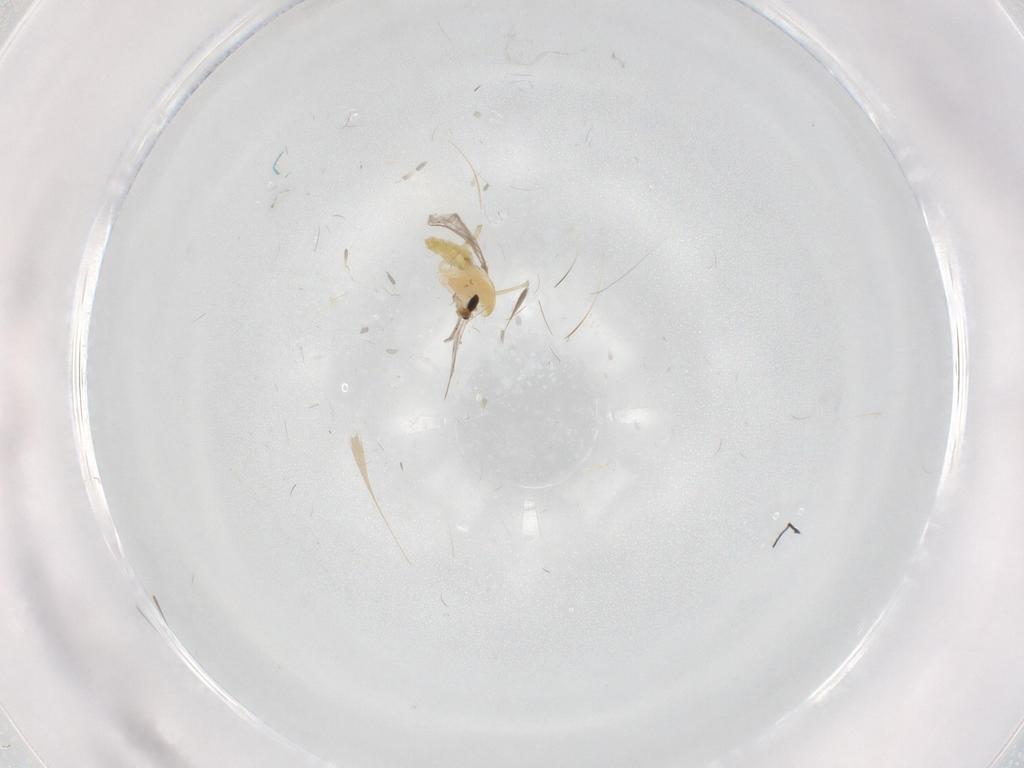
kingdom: Animalia
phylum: Arthropoda
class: Insecta
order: Diptera
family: Chironomidae
